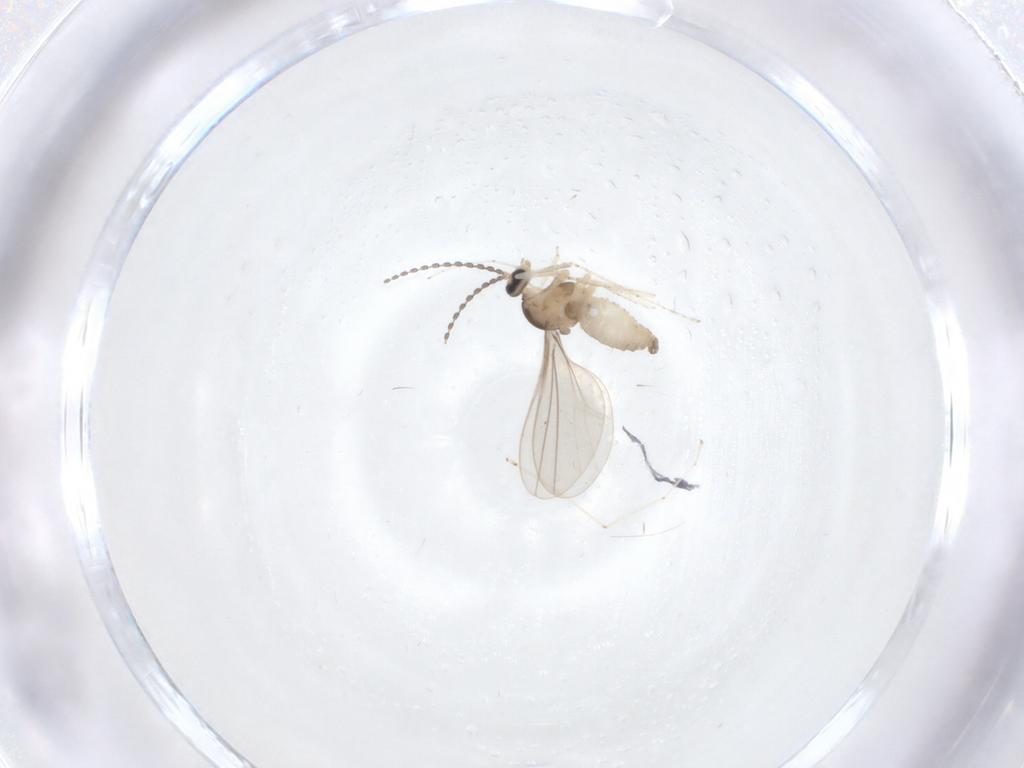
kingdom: Animalia
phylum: Arthropoda
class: Insecta
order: Diptera
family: Cecidomyiidae
